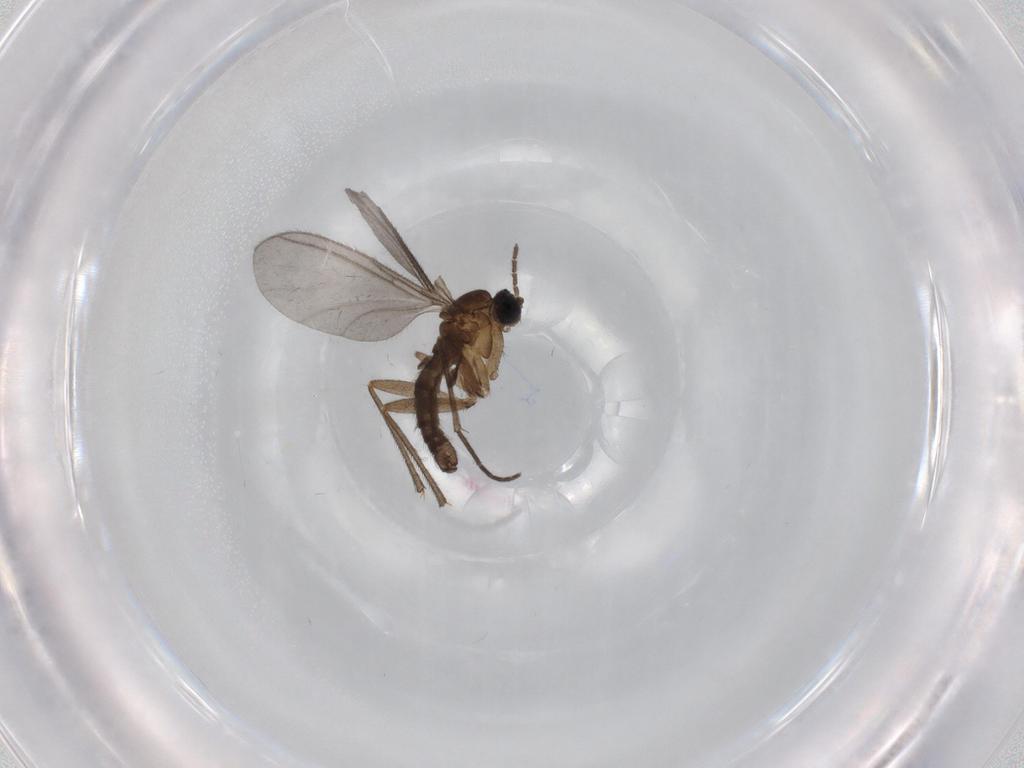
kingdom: Animalia
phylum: Arthropoda
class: Insecta
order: Diptera
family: Sciaridae
